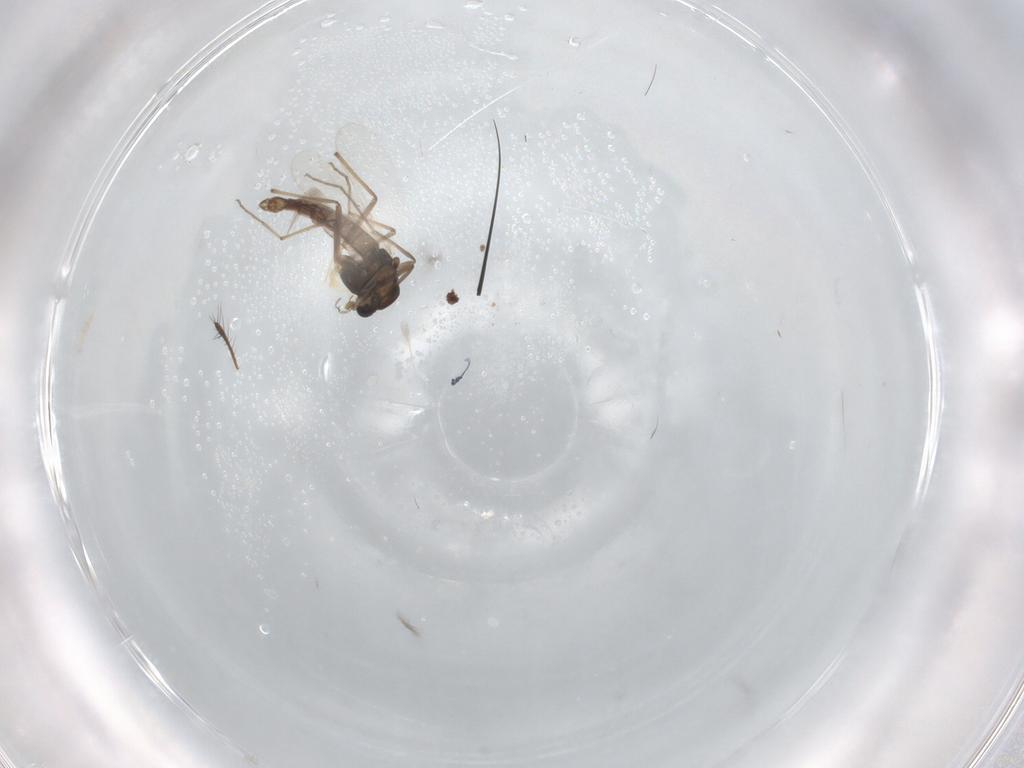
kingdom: Animalia
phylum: Arthropoda
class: Insecta
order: Diptera
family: Chironomidae
